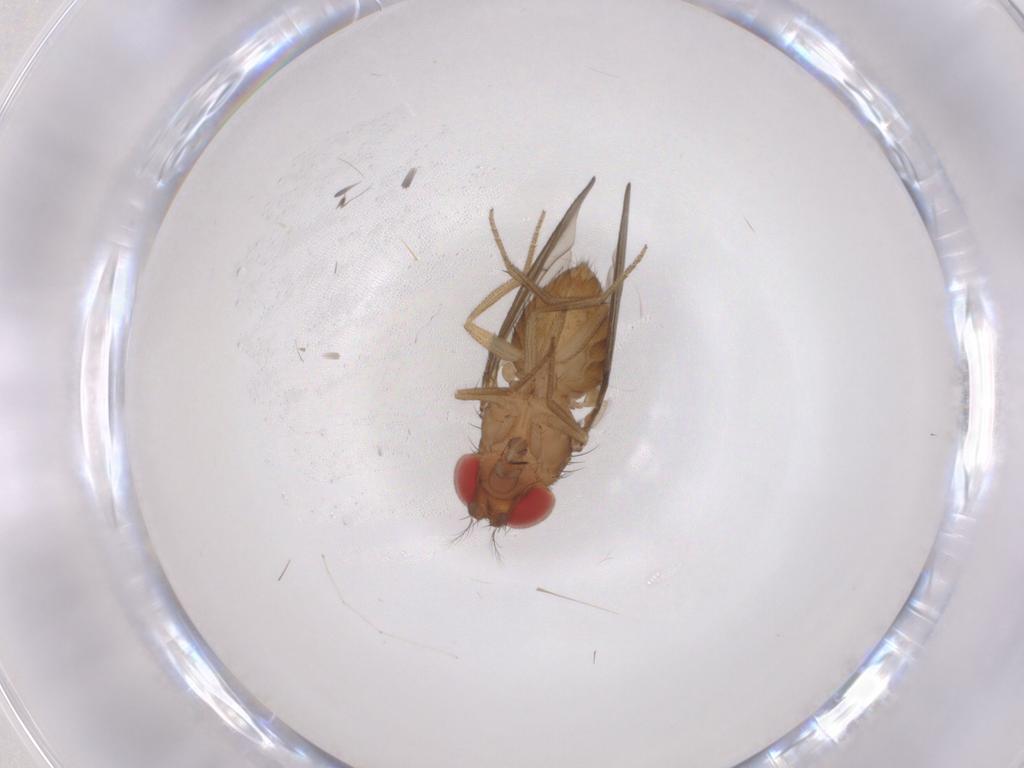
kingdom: Animalia
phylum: Arthropoda
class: Insecta
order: Diptera
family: Drosophilidae
